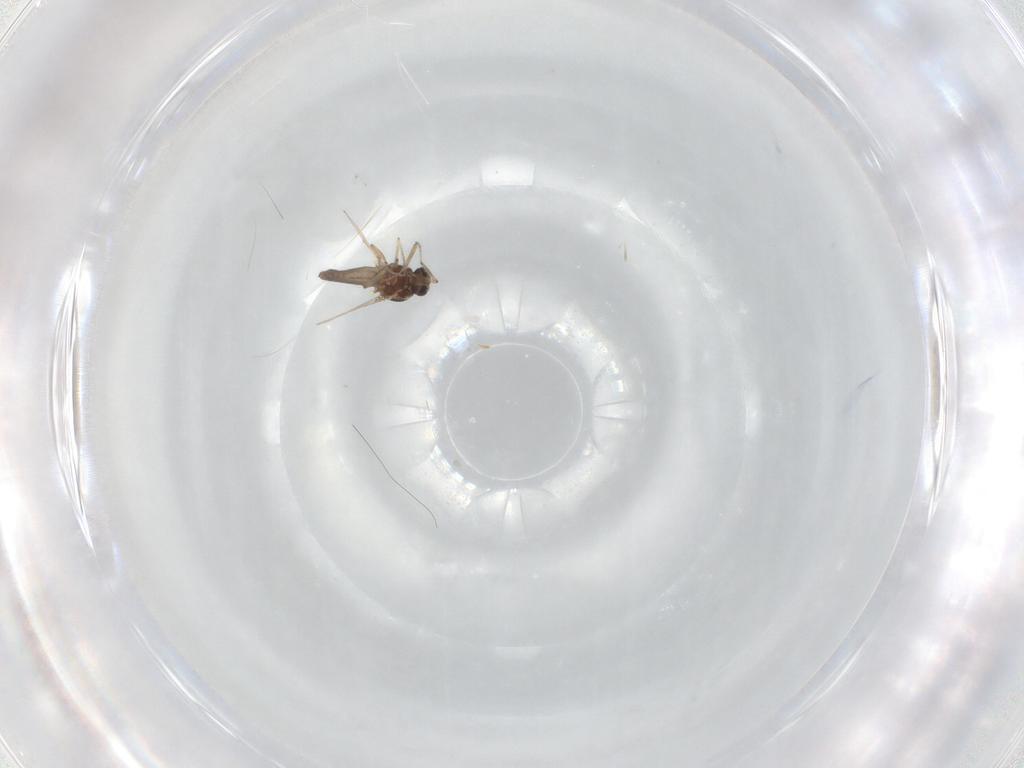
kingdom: Animalia
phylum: Arthropoda
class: Insecta
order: Diptera
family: Ceratopogonidae
